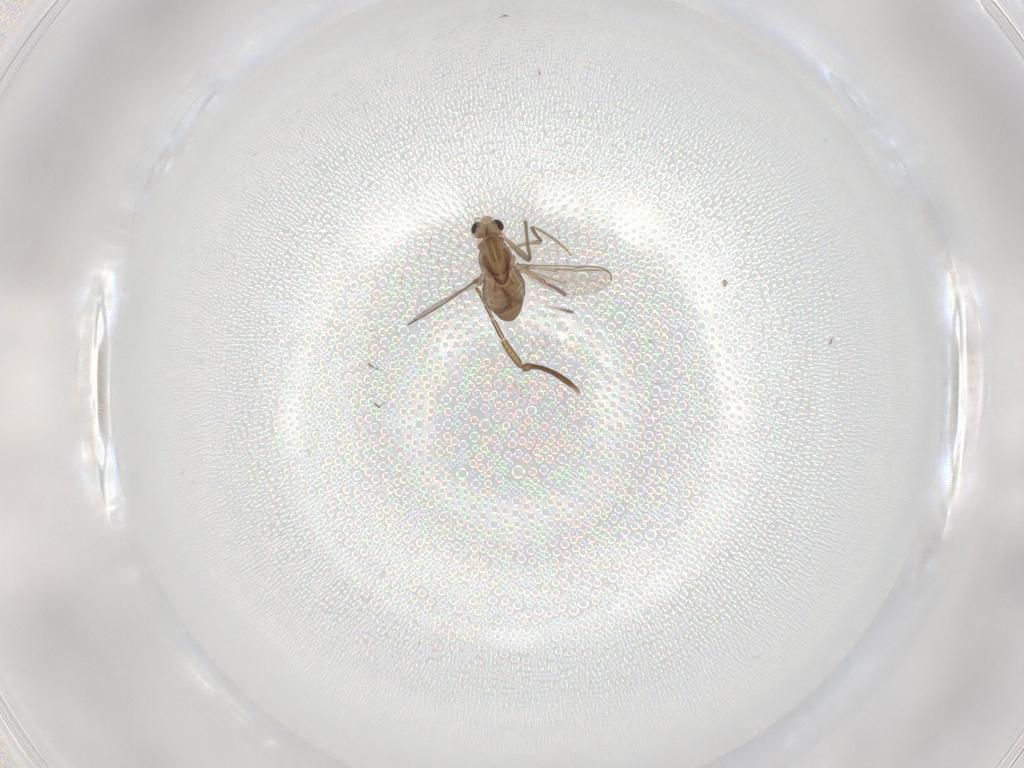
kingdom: Animalia
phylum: Arthropoda
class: Insecta
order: Diptera
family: Chironomidae
